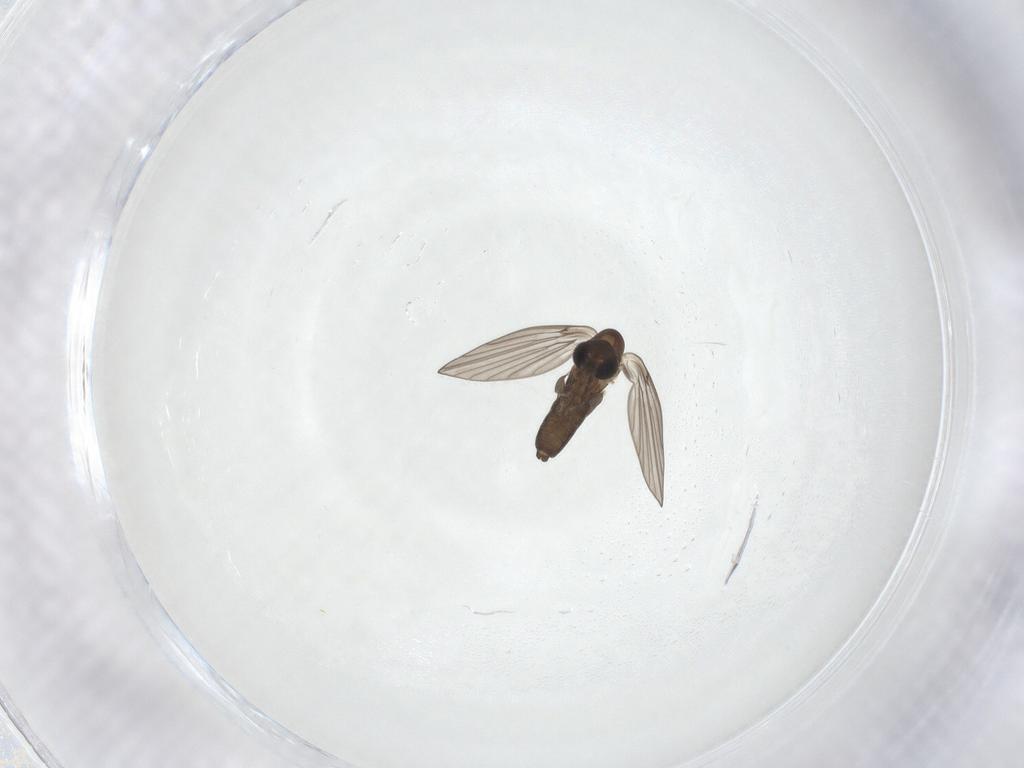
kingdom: Animalia
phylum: Arthropoda
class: Insecta
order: Diptera
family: Psychodidae
